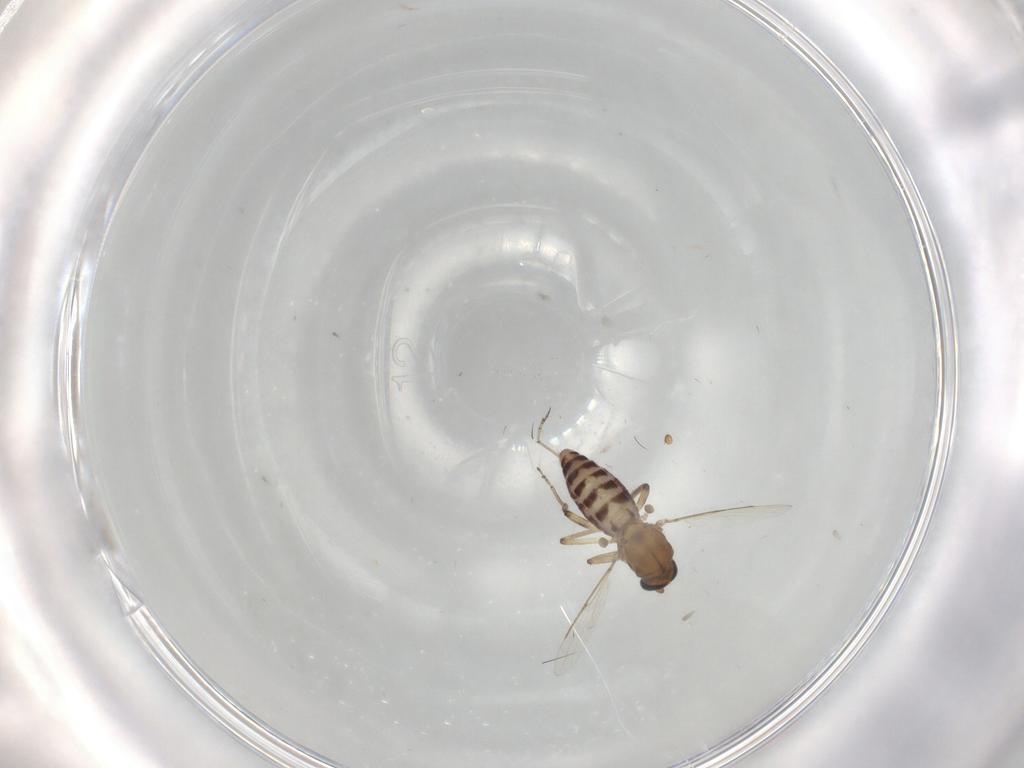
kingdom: Animalia
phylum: Arthropoda
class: Insecta
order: Diptera
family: Ceratopogonidae
